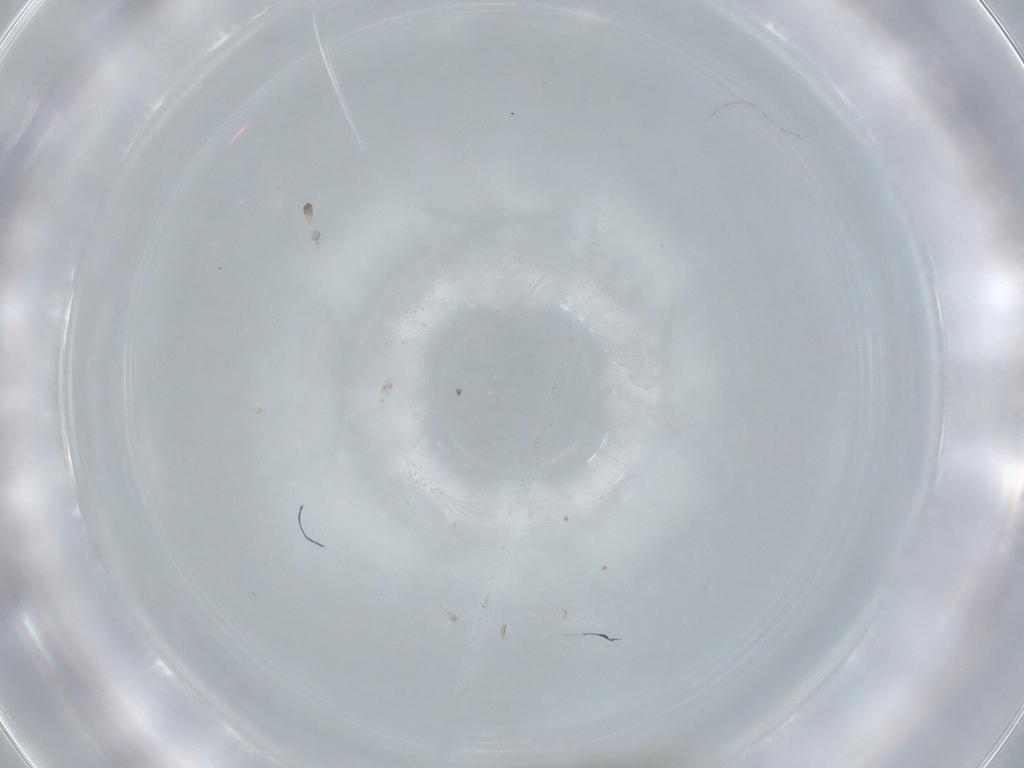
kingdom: Animalia
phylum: Arthropoda
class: Insecta
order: Coleoptera
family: Staphylinidae
